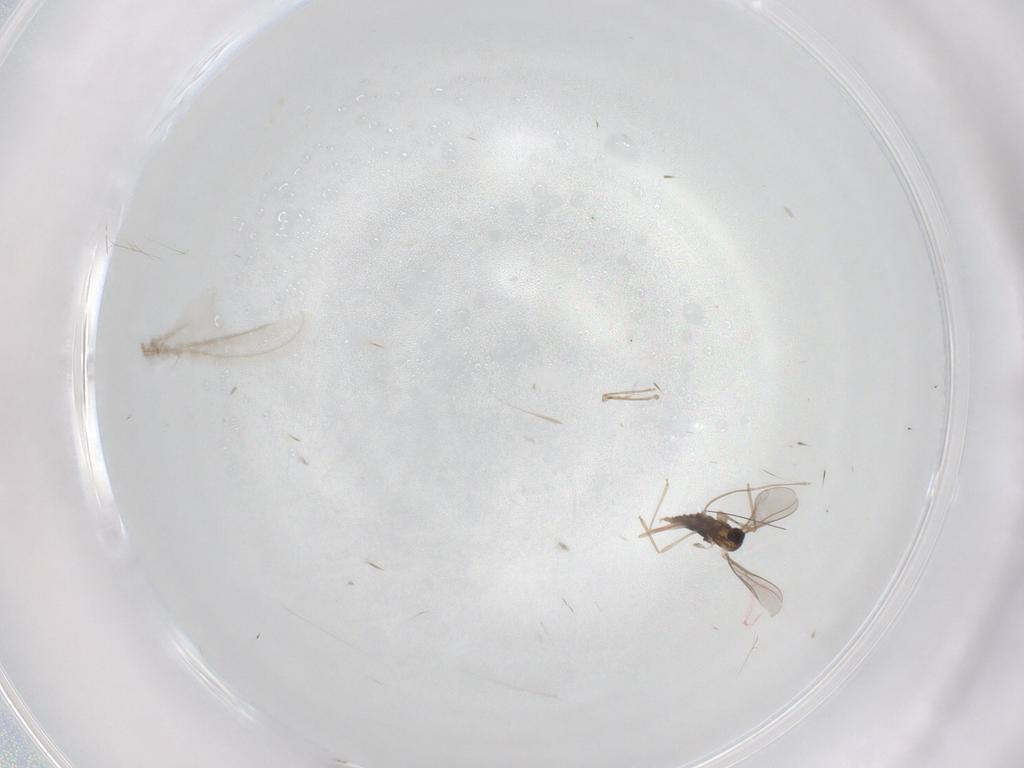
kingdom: Animalia
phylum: Arthropoda
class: Insecta
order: Diptera
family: Cecidomyiidae
